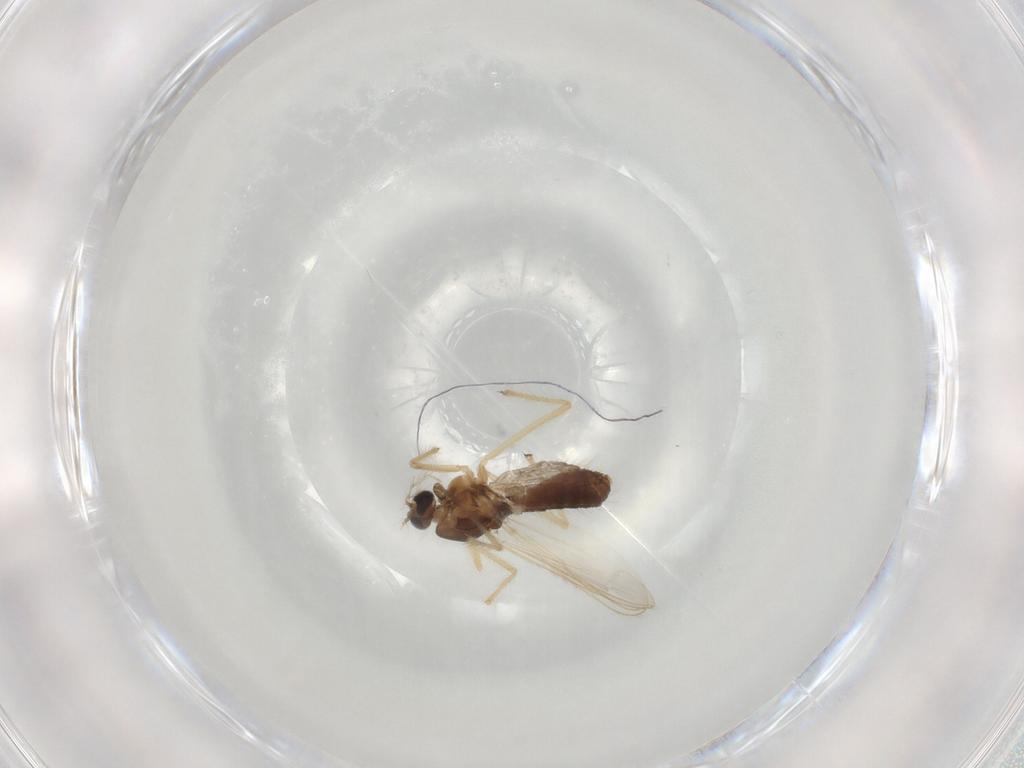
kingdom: Animalia
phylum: Arthropoda
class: Insecta
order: Diptera
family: Chironomidae
